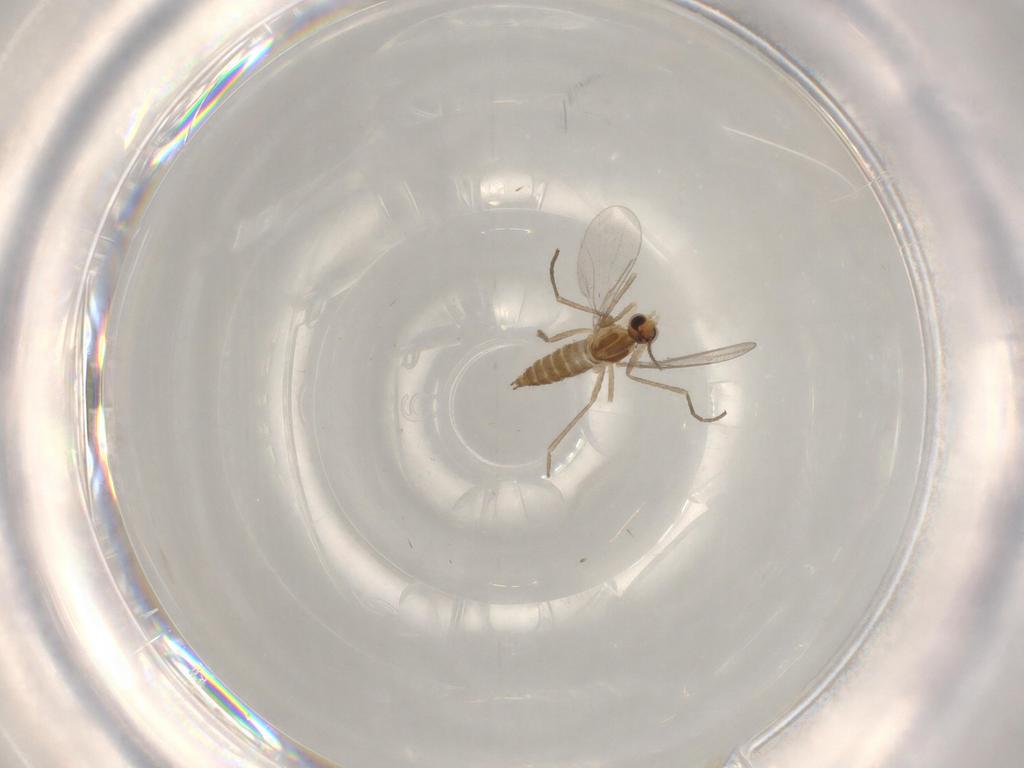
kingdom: Animalia
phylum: Arthropoda
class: Insecta
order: Diptera
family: Cecidomyiidae
